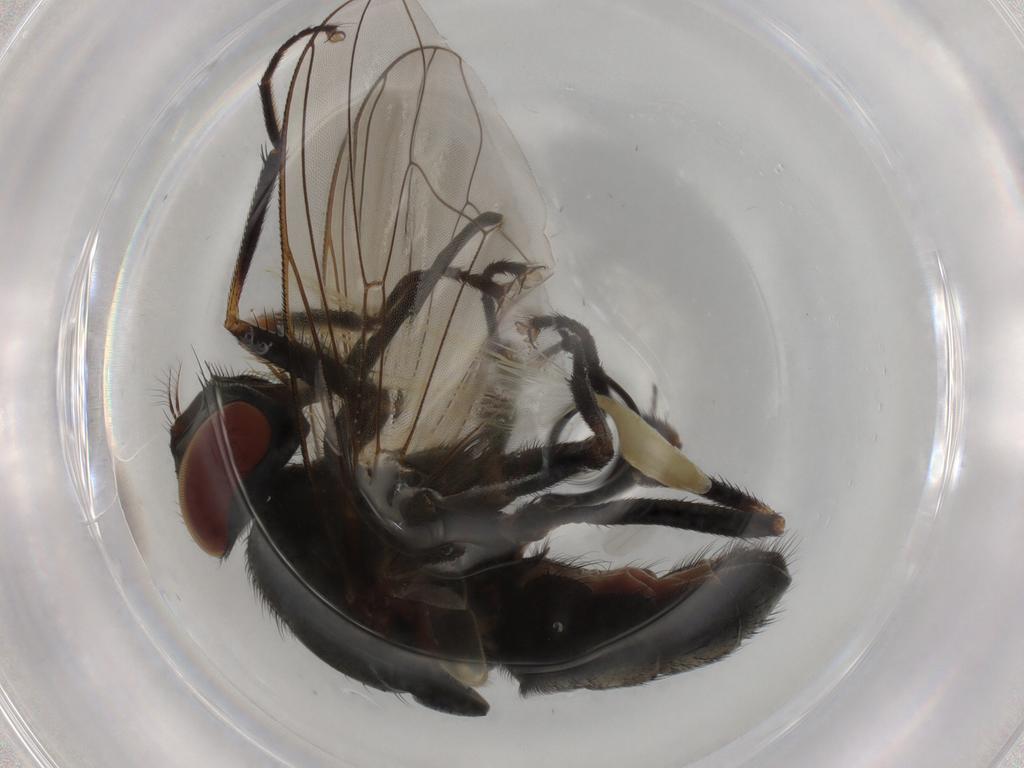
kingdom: Animalia
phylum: Arthropoda
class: Insecta
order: Diptera
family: Muscidae
